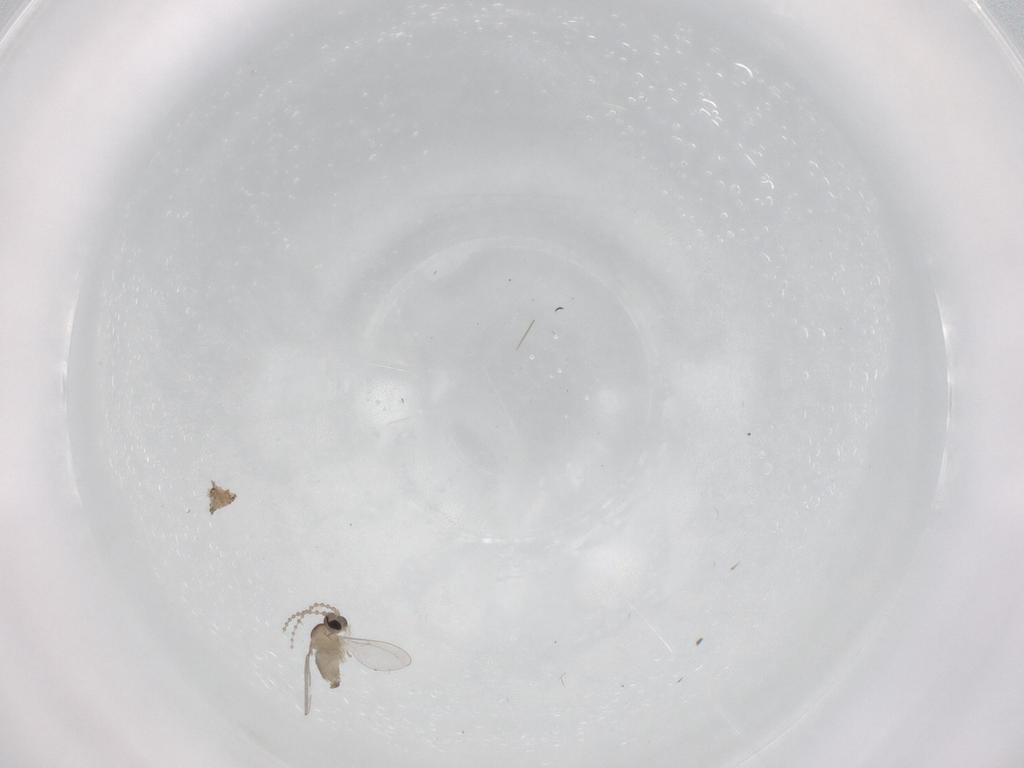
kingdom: Animalia
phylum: Arthropoda
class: Insecta
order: Diptera
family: Cecidomyiidae
